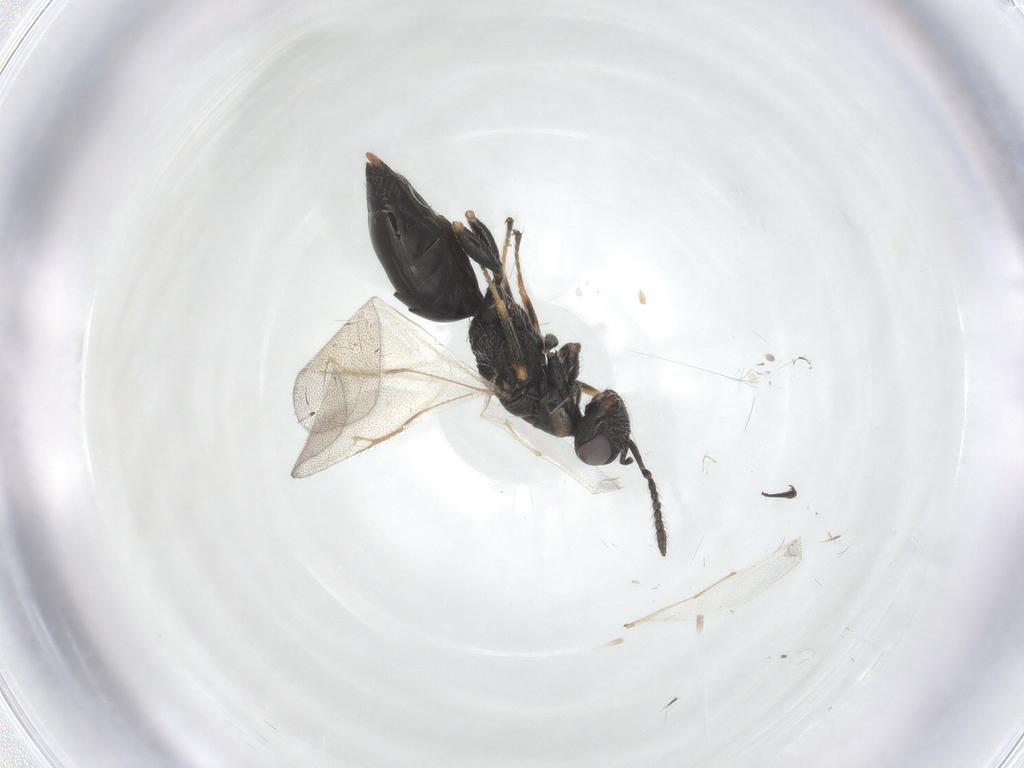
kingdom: Animalia
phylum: Arthropoda
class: Insecta
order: Hymenoptera
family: Eurytomidae
